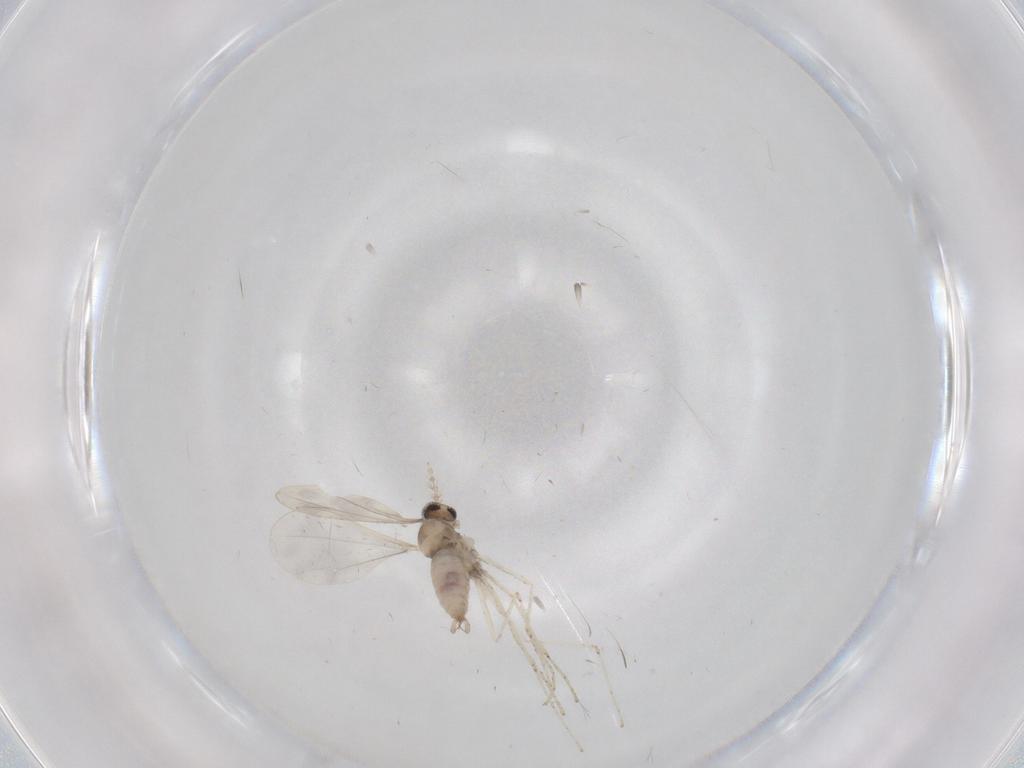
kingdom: Animalia
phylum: Arthropoda
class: Insecta
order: Diptera
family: Cecidomyiidae
